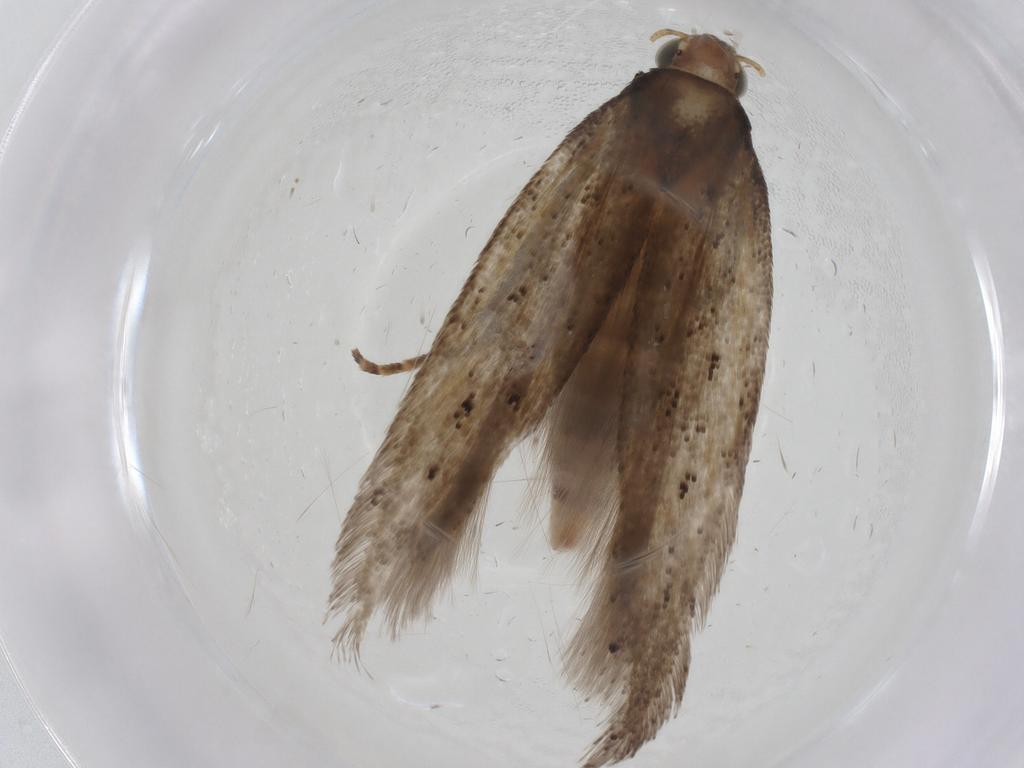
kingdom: Animalia
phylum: Arthropoda
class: Insecta
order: Lepidoptera
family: Gelechiidae
